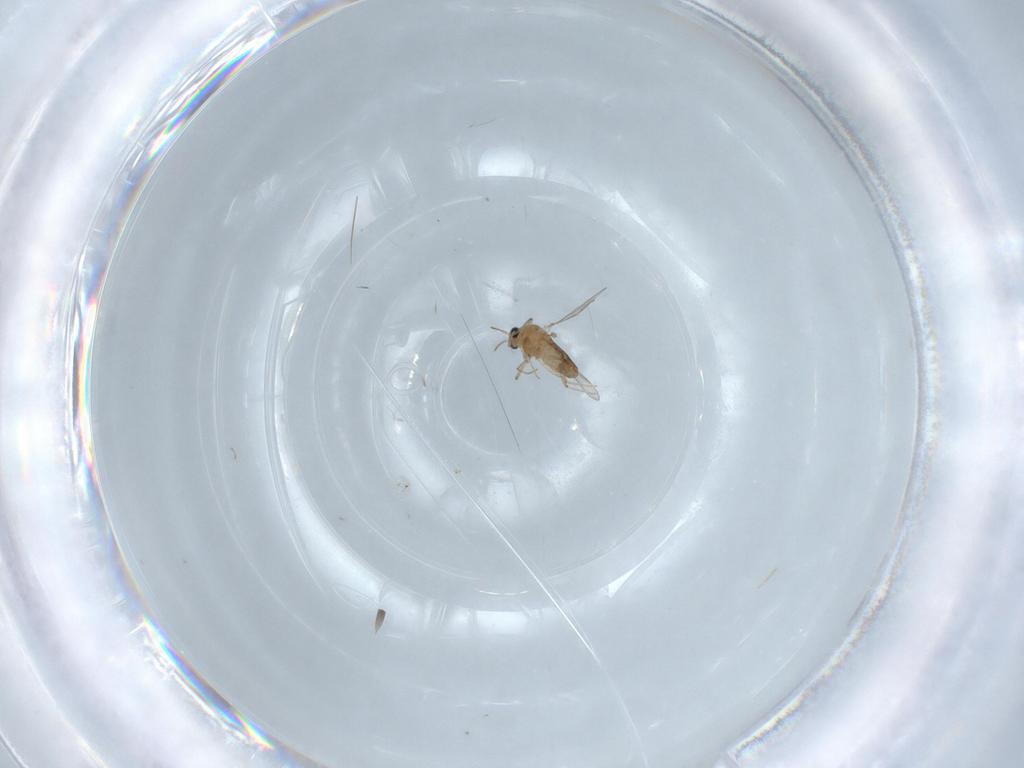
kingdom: Animalia
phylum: Arthropoda
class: Insecta
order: Diptera
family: Chironomidae
